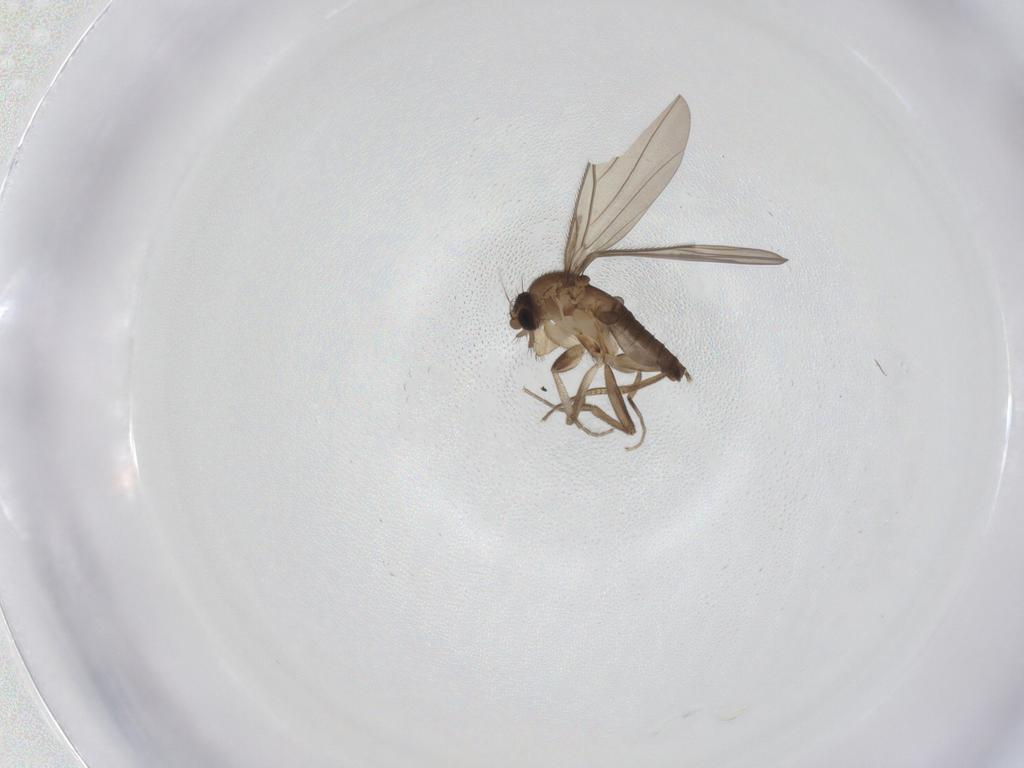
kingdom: Animalia
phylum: Arthropoda
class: Insecta
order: Diptera
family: Phoridae
